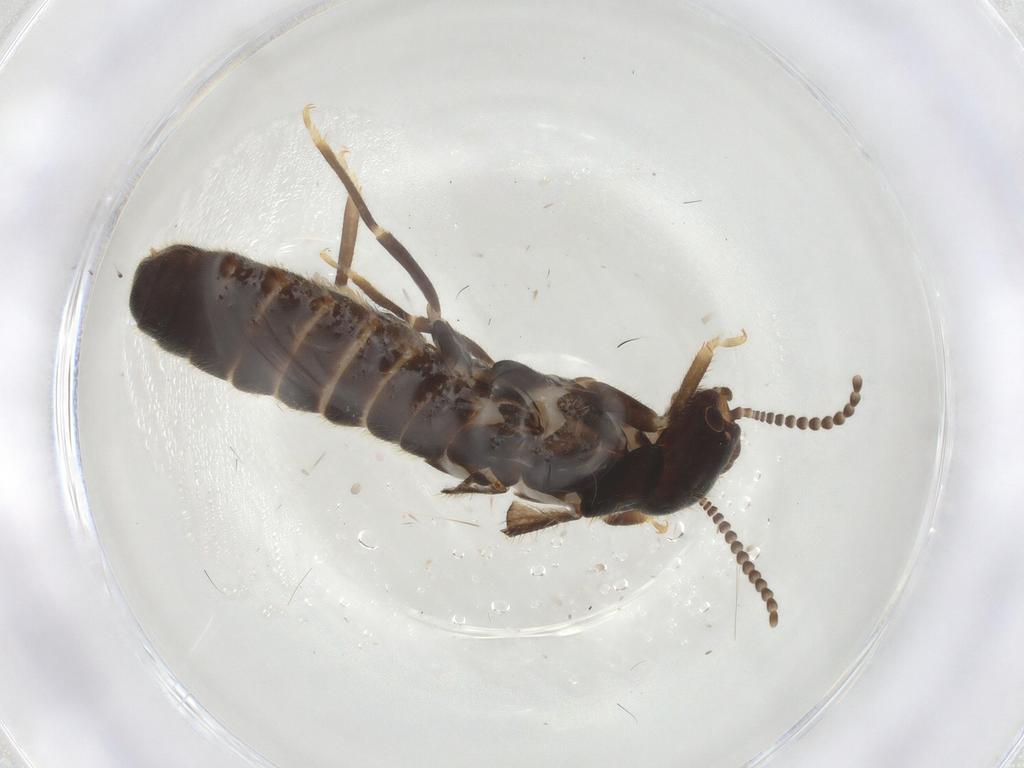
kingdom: Animalia
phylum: Arthropoda
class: Insecta
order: Blattodea
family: Rhinotermitidae
